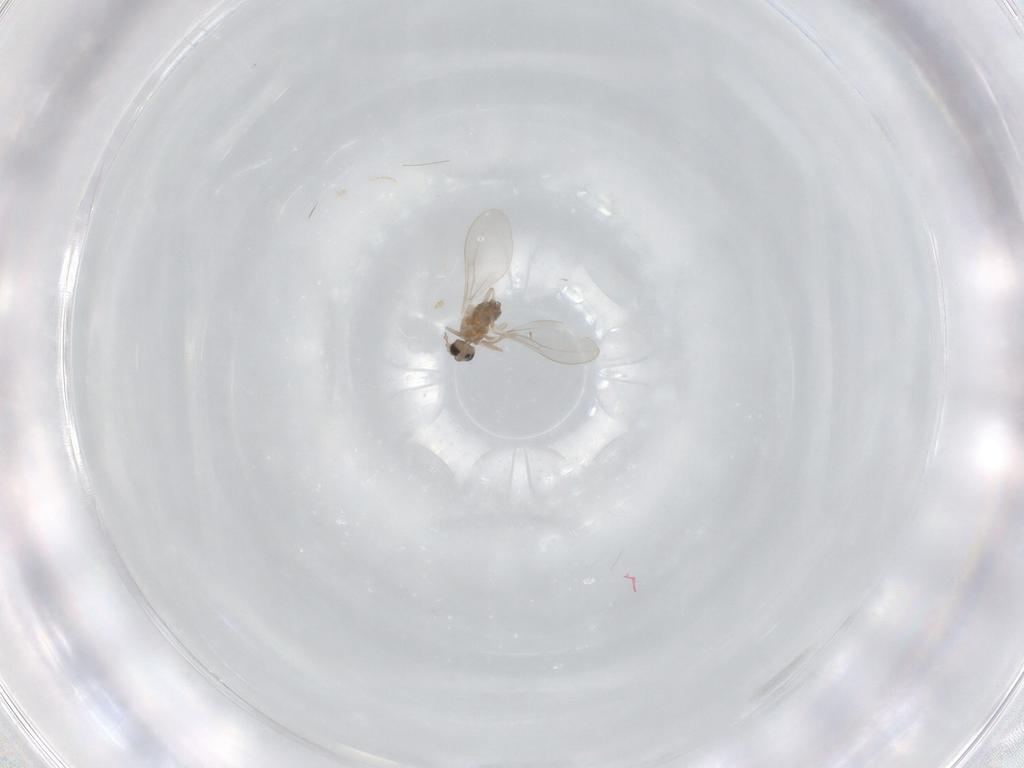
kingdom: Animalia
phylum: Arthropoda
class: Insecta
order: Diptera
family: Cecidomyiidae
